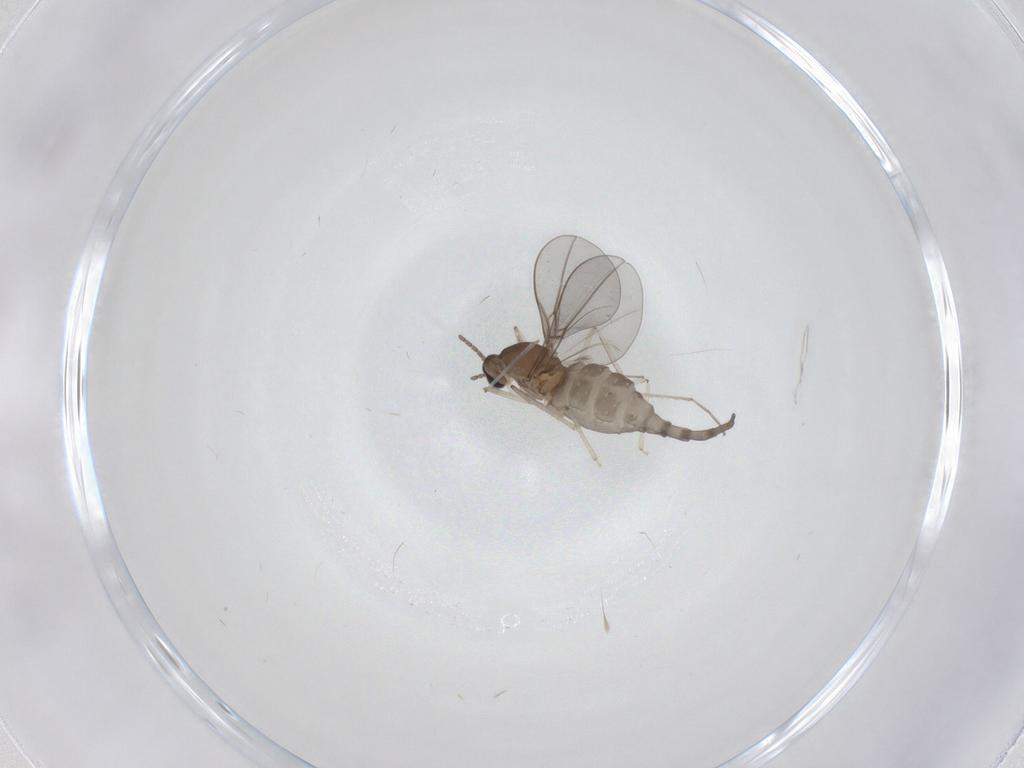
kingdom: Animalia
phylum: Arthropoda
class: Insecta
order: Diptera
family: Cecidomyiidae
